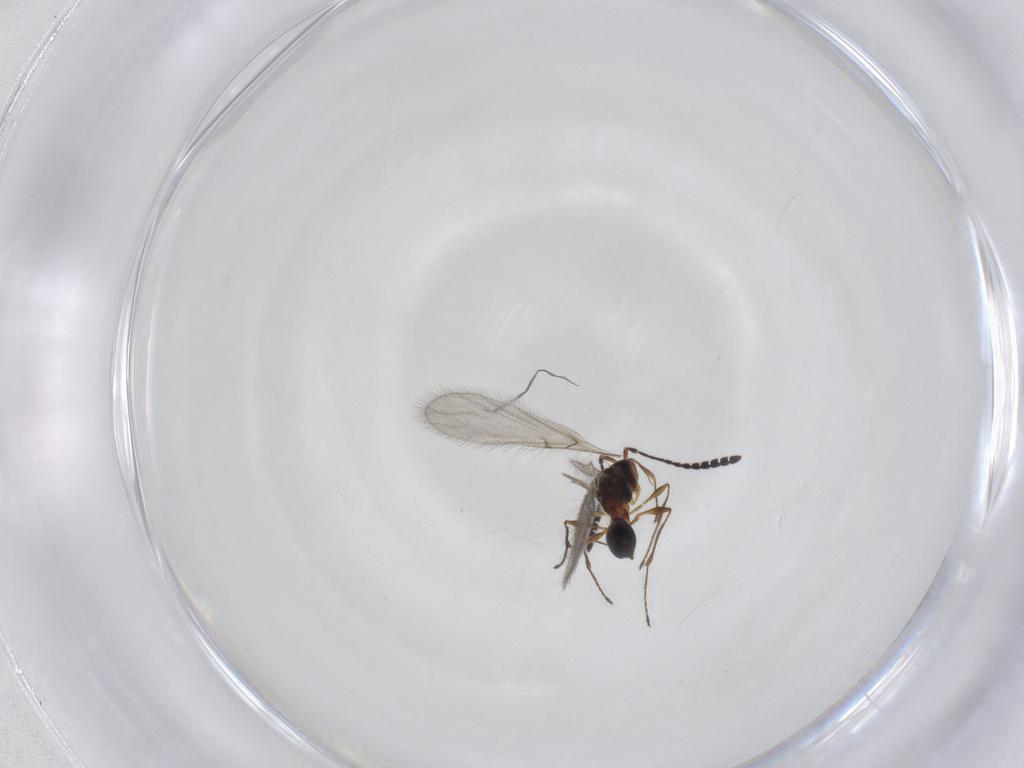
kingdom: Animalia
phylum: Arthropoda
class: Insecta
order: Hymenoptera
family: Diapriidae
